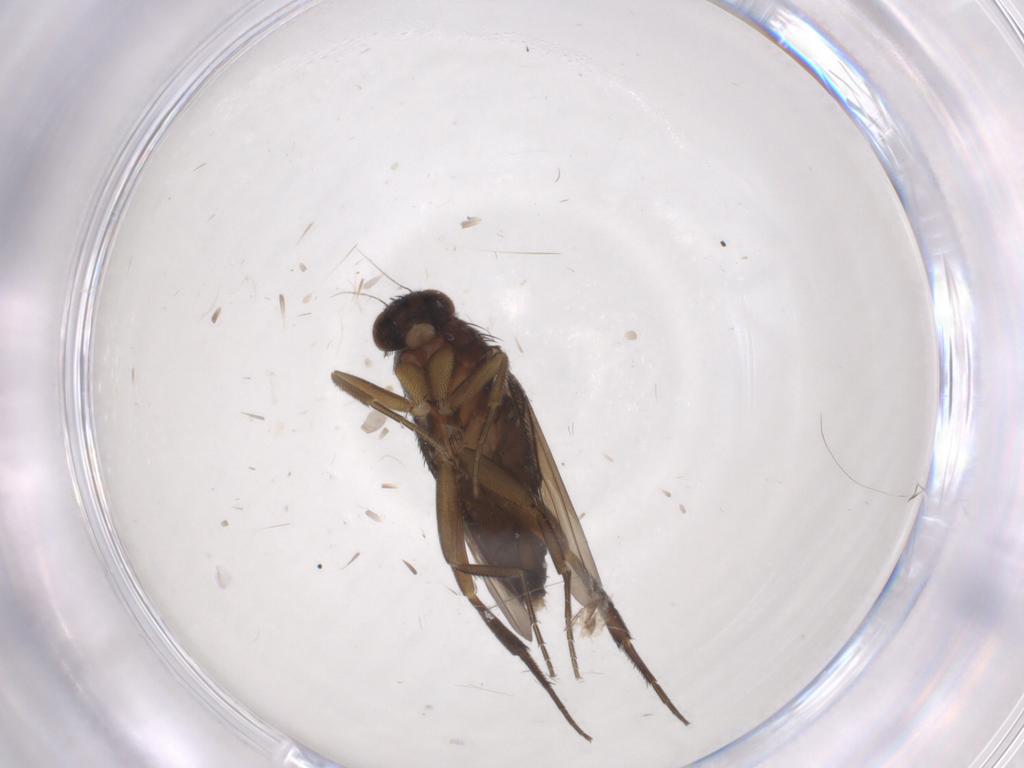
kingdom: Animalia
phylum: Arthropoda
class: Insecta
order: Diptera
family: Phoridae
